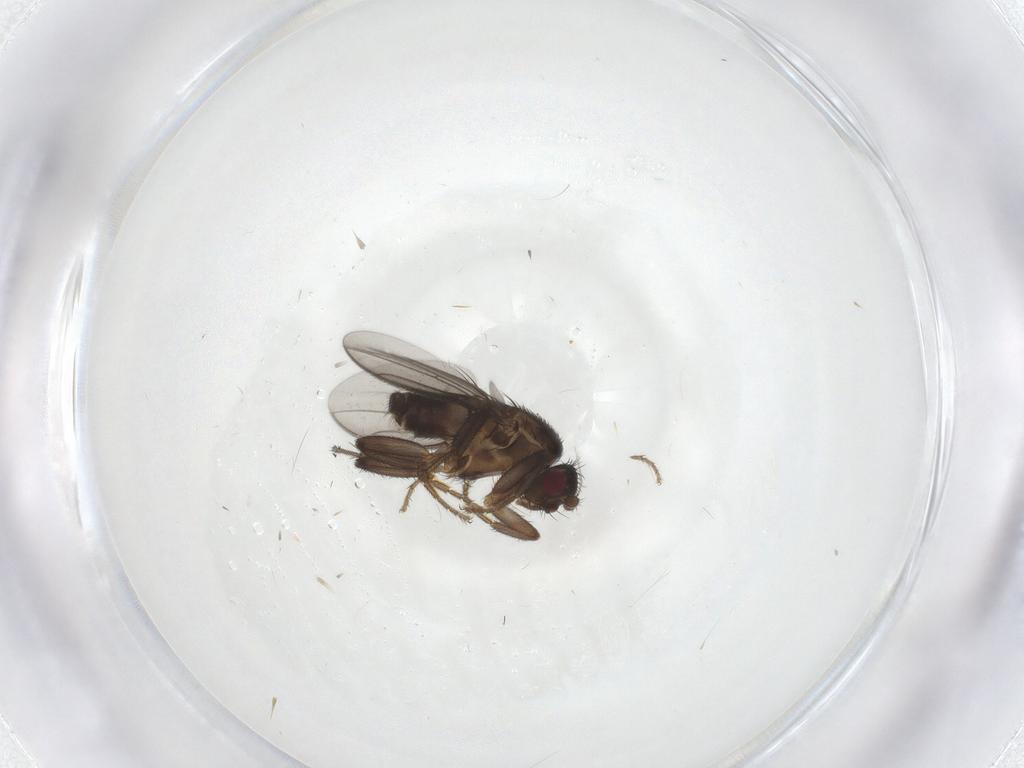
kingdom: Animalia
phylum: Arthropoda
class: Insecta
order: Diptera
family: Sphaeroceridae
